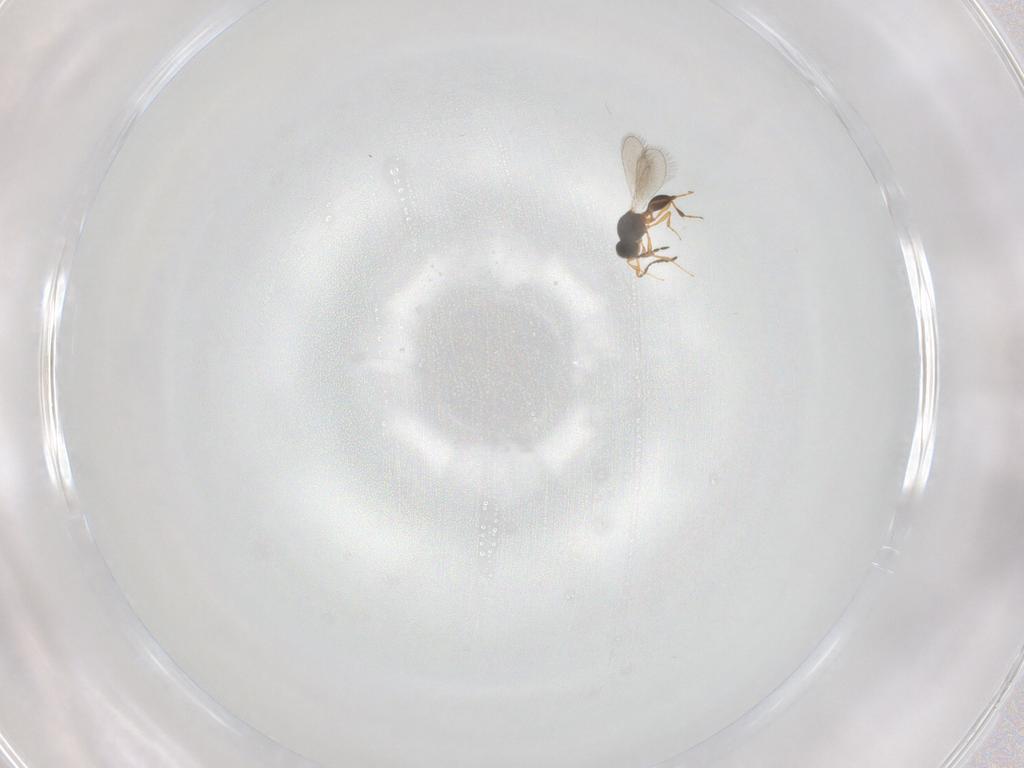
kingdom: Animalia
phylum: Arthropoda
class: Insecta
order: Hymenoptera
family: Platygastridae
